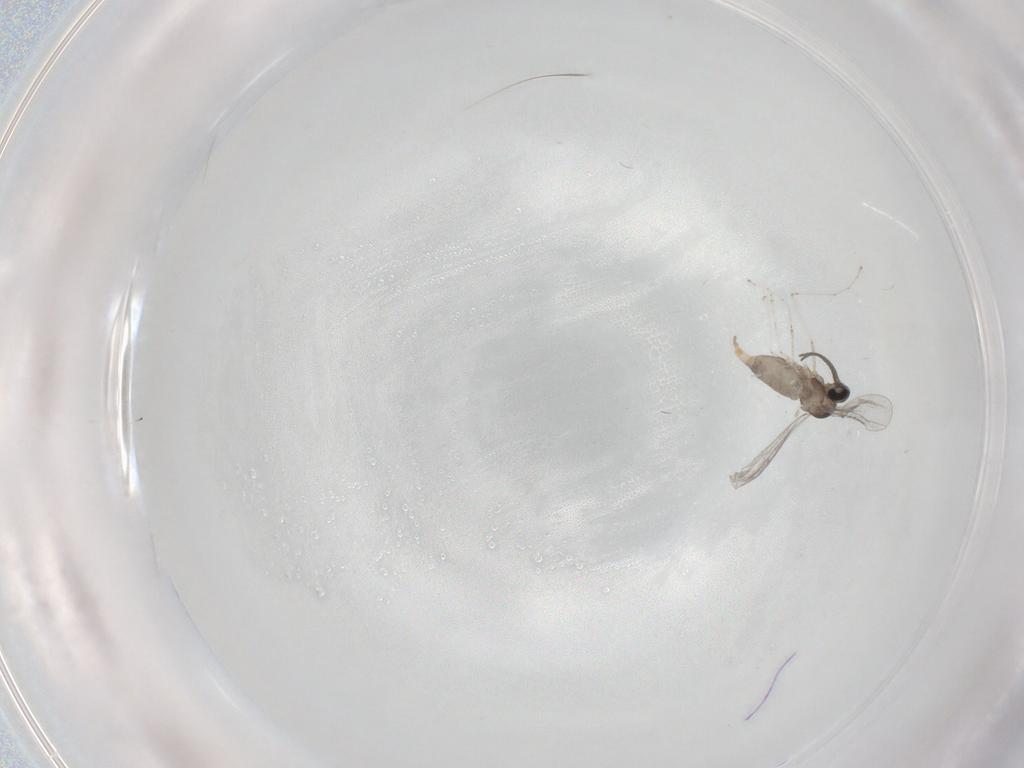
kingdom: Animalia
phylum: Arthropoda
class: Insecta
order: Diptera
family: Cecidomyiidae
